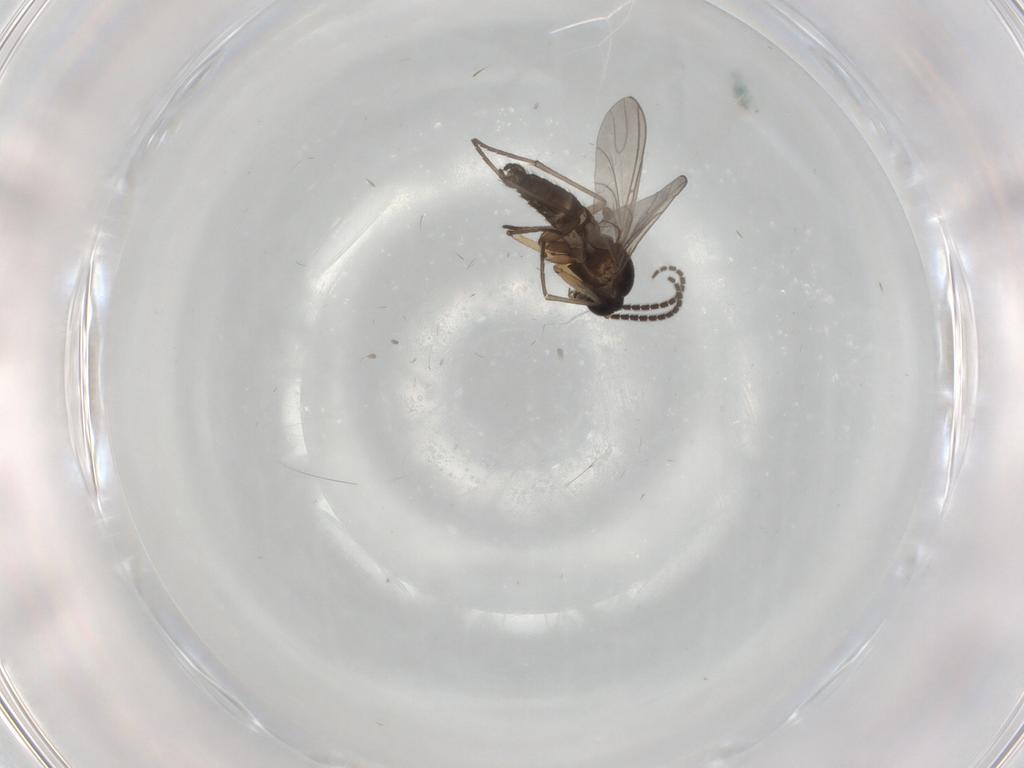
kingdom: Animalia
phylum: Arthropoda
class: Insecta
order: Diptera
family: Sciaridae
